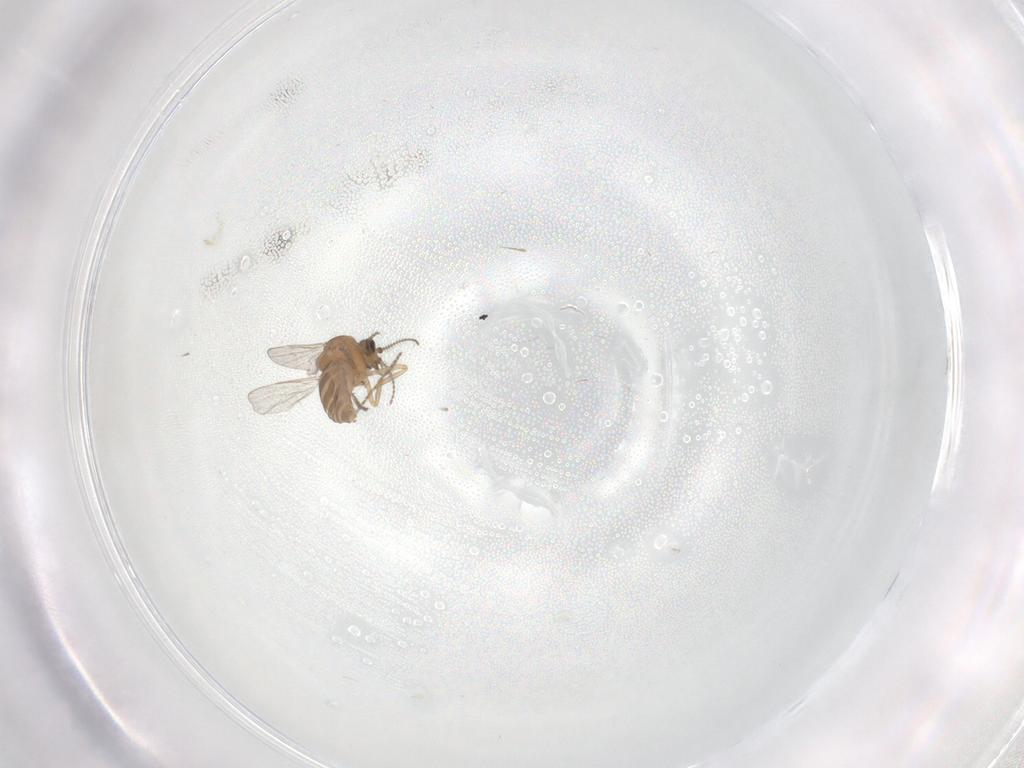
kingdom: Animalia
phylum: Arthropoda
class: Insecta
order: Diptera
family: Ceratopogonidae
